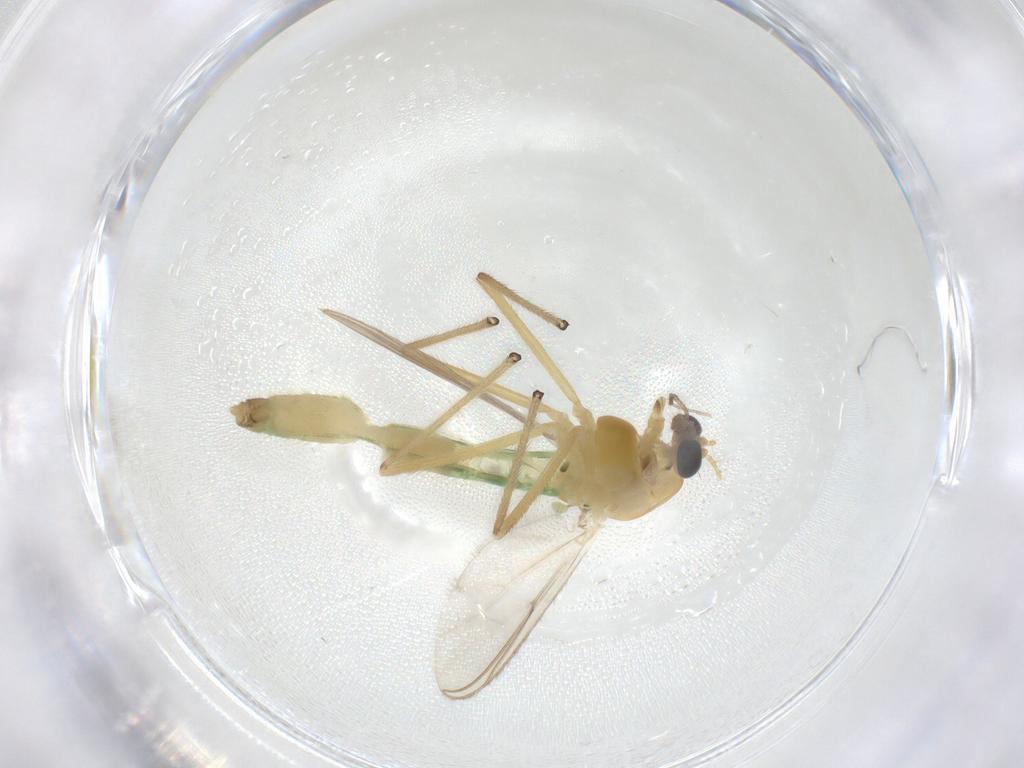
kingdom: Animalia
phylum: Arthropoda
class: Insecta
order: Diptera
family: Chironomidae
